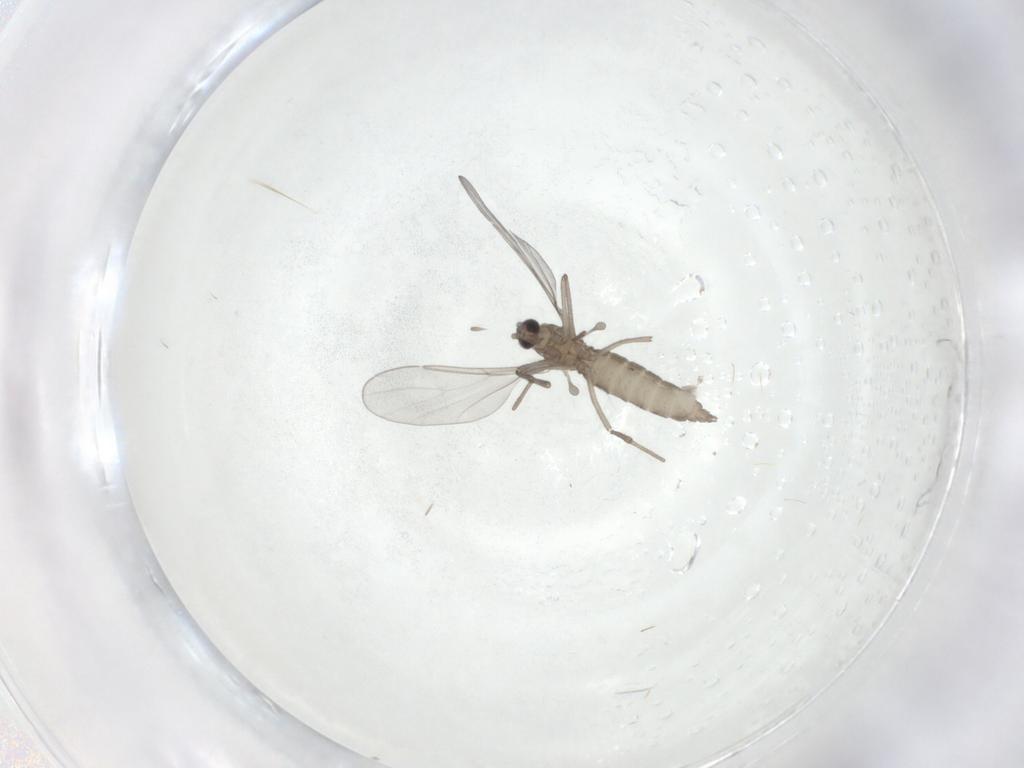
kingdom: Animalia
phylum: Arthropoda
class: Insecta
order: Diptera
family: Cecidomyiidae
